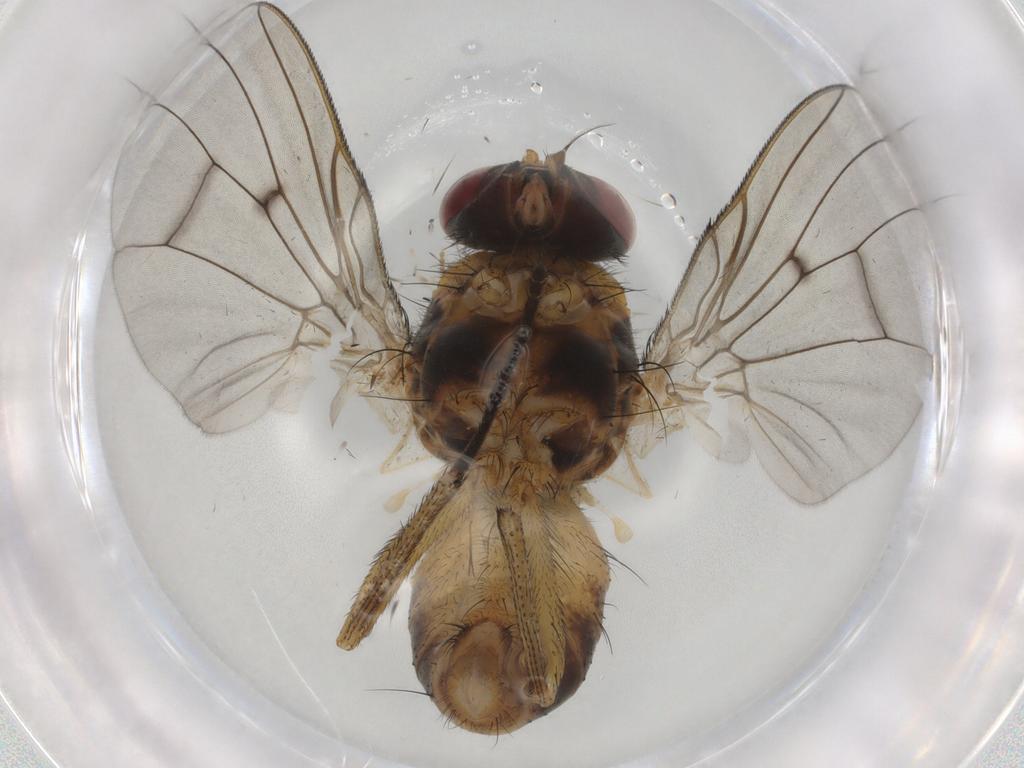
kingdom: Animalia
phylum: Arthropoda
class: Insecta
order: Diptera
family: Muscidae
